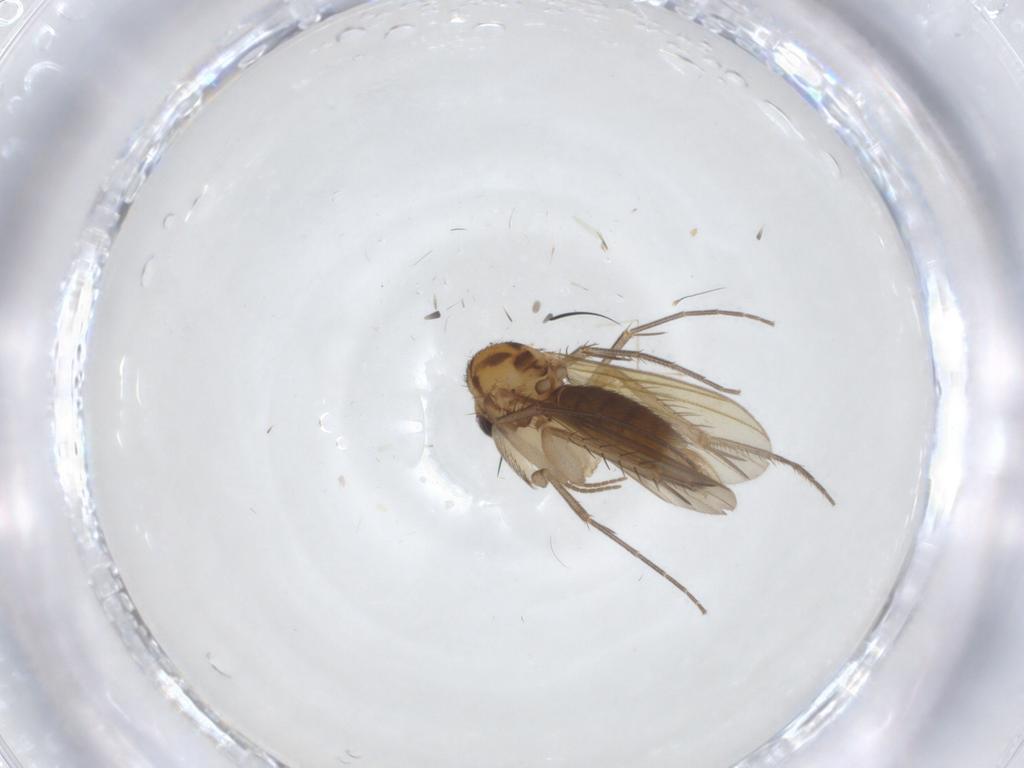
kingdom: Animalia
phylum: Arthropoda
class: Insecta
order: Diptera
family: Mycetophilidae
